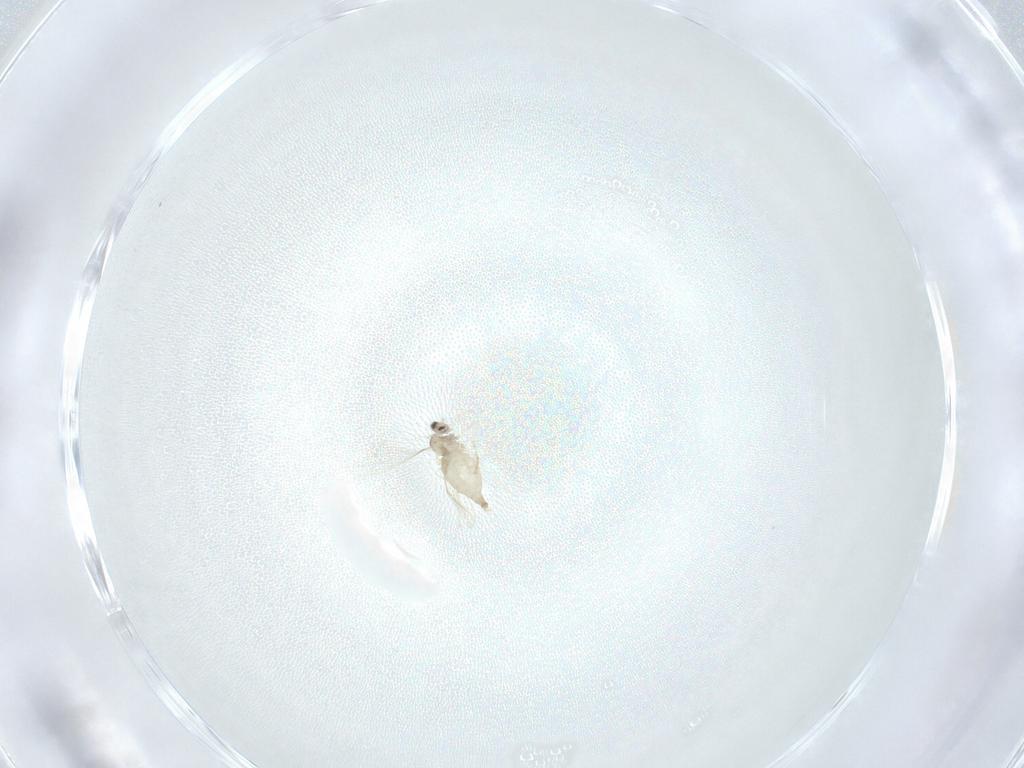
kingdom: Animalia
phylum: Arthropoda
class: Insecta
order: Diptera
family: Cecidomyiidae
